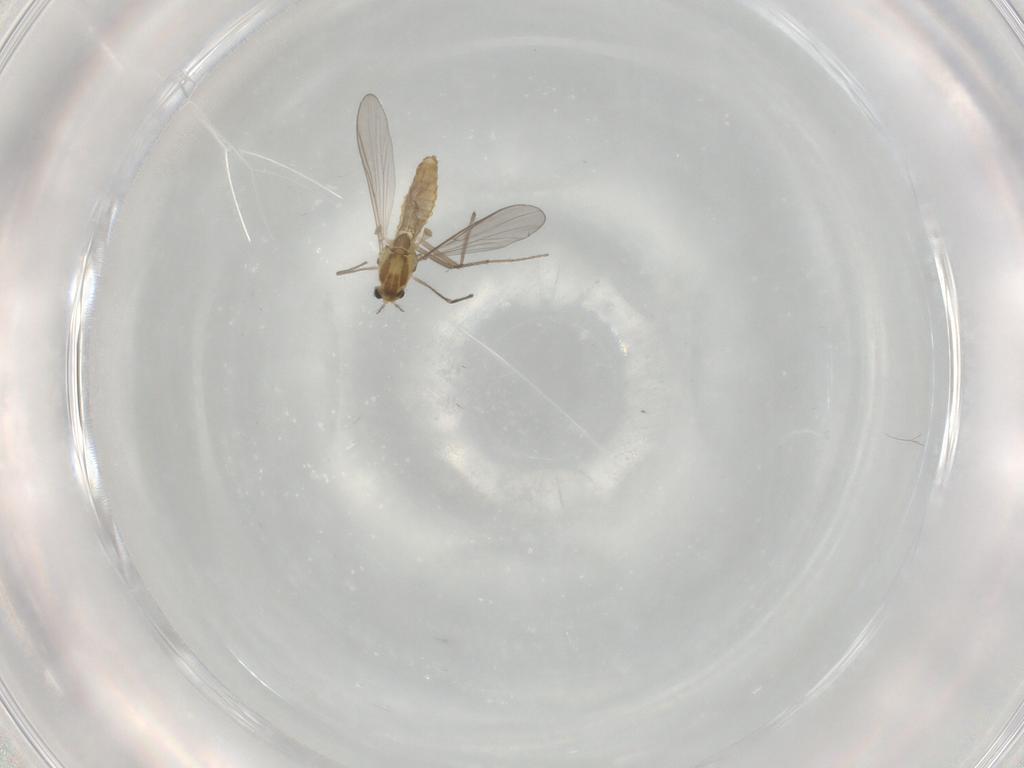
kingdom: Animalia
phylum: Arthropoda
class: Insecta
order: Diptera
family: Chironomidae
